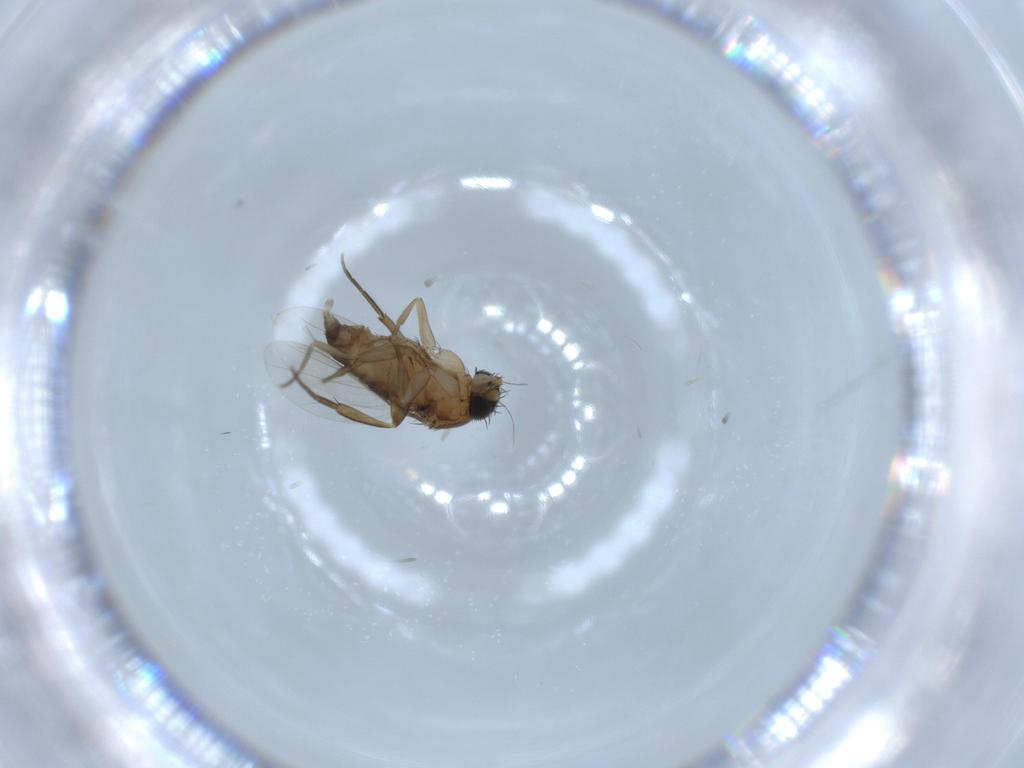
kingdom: Animalia
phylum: Arthropoda
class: Insecta
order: Diptera
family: Phoridae
